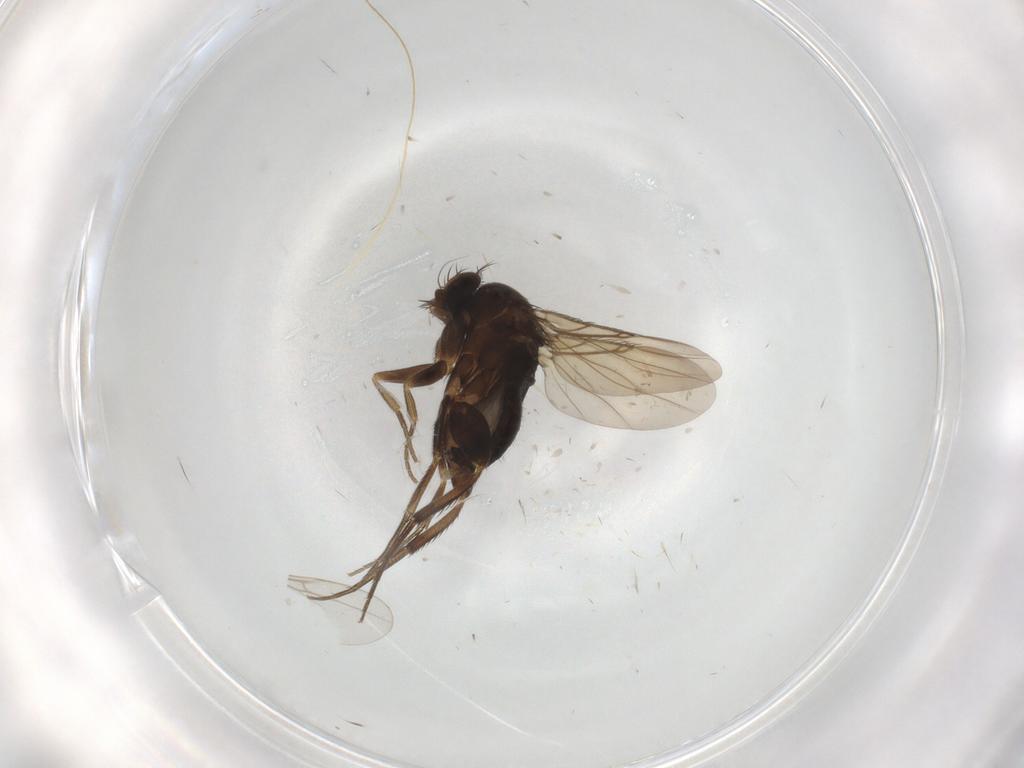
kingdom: Animalia
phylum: Arthropoda
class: Insecta
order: Diptera
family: Phoridae
